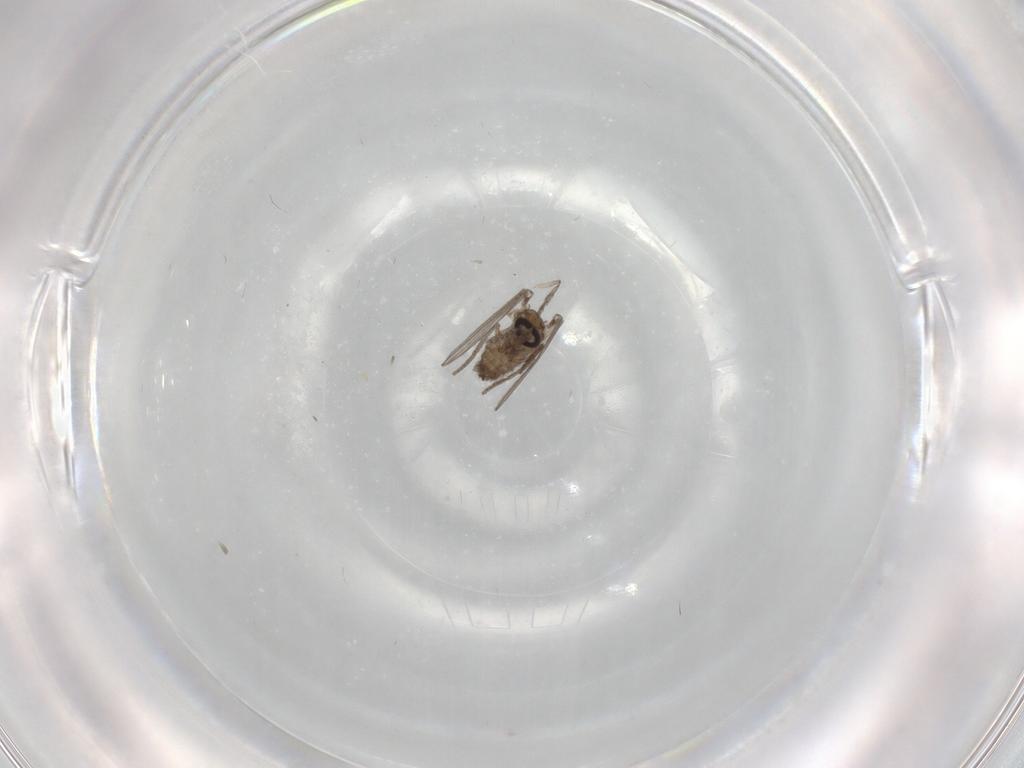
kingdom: Animalia
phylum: Arthropoda
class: Insecta
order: Diptera
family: Psychodidae
